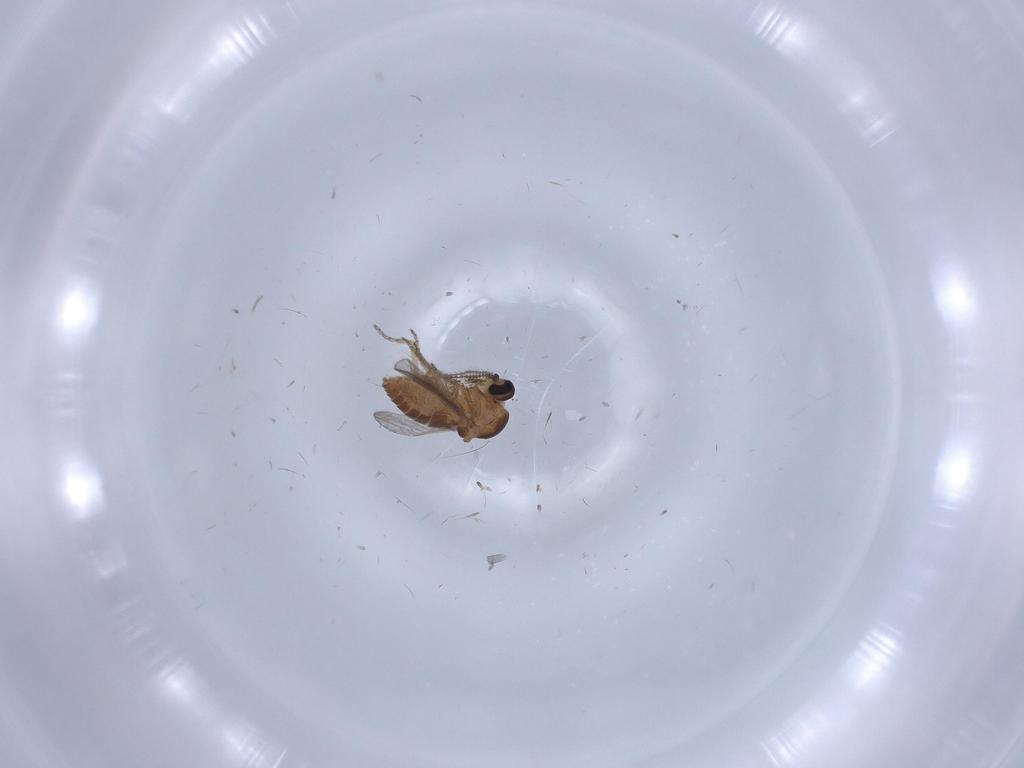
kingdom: Animalia
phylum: Arthropoda
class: Insecta
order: Diptera
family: Ceratopogonidae
